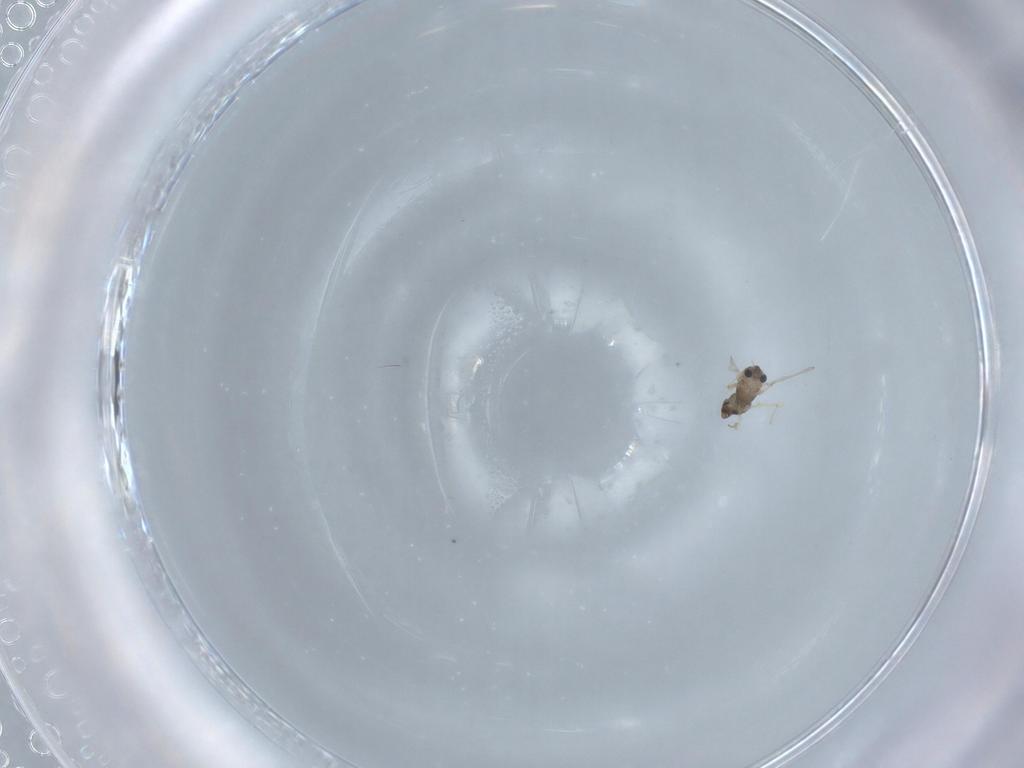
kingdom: Animalia
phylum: Arthropoda
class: Insecta
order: Diptera
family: Chironomidae
